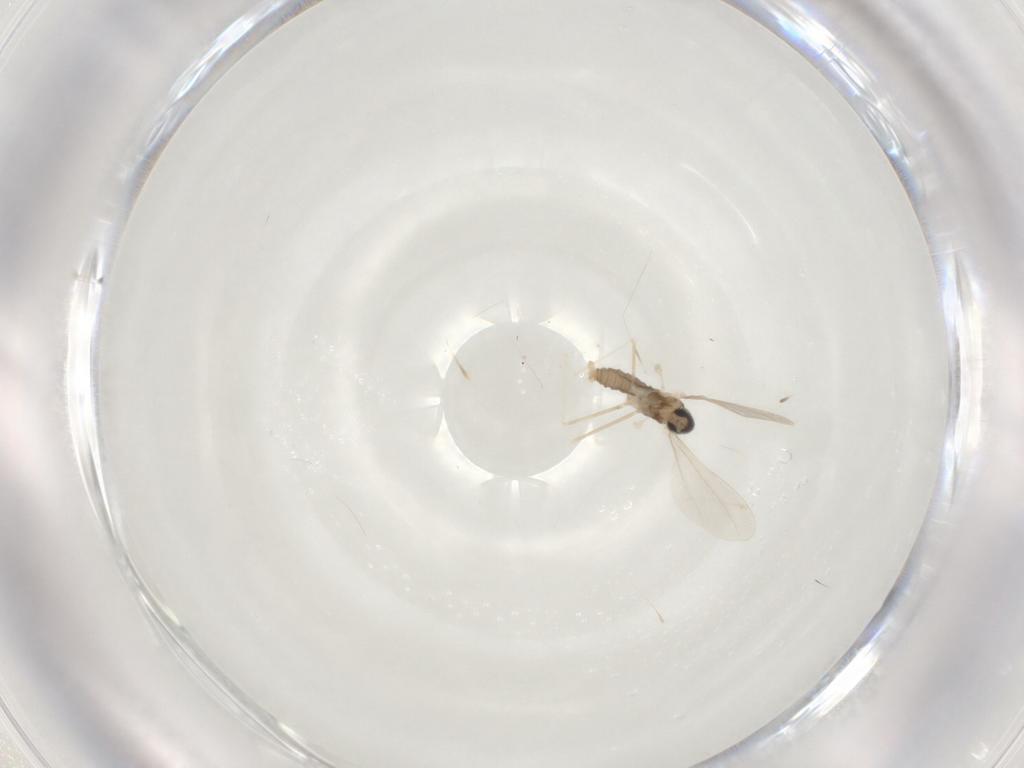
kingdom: Animalia
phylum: Arthropoda
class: Insecta
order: Diptera
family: Cecidomyiidae
